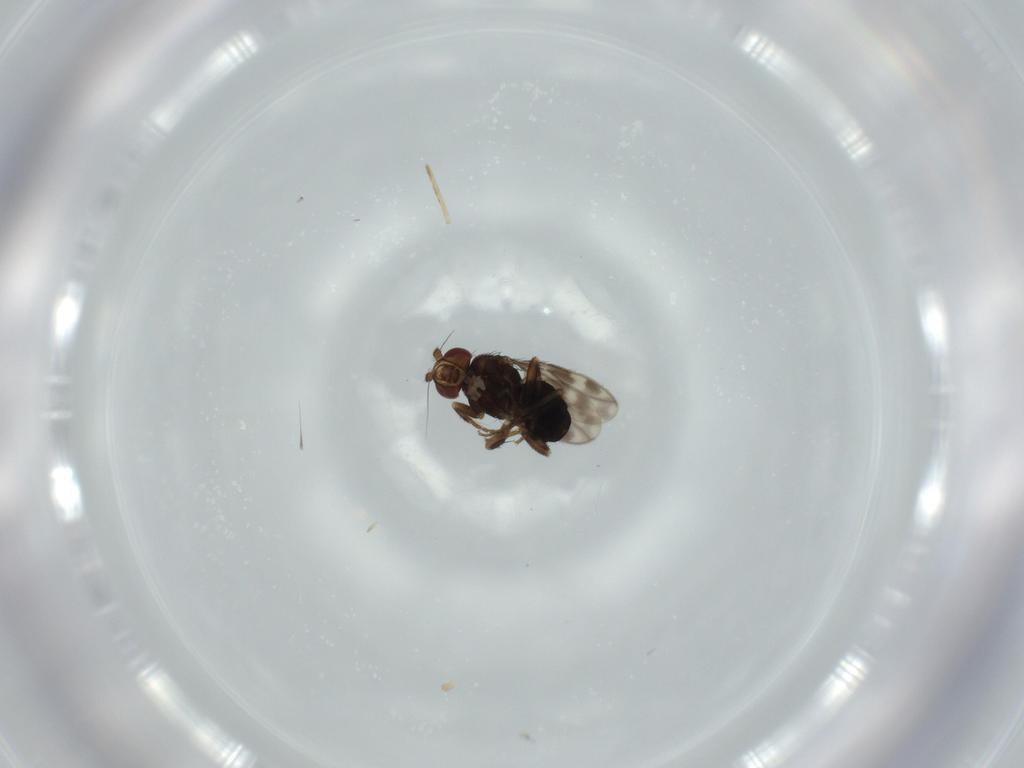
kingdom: Animalia
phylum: Arthropoda
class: Insecta
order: Diptera
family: Sphaeroceridae
